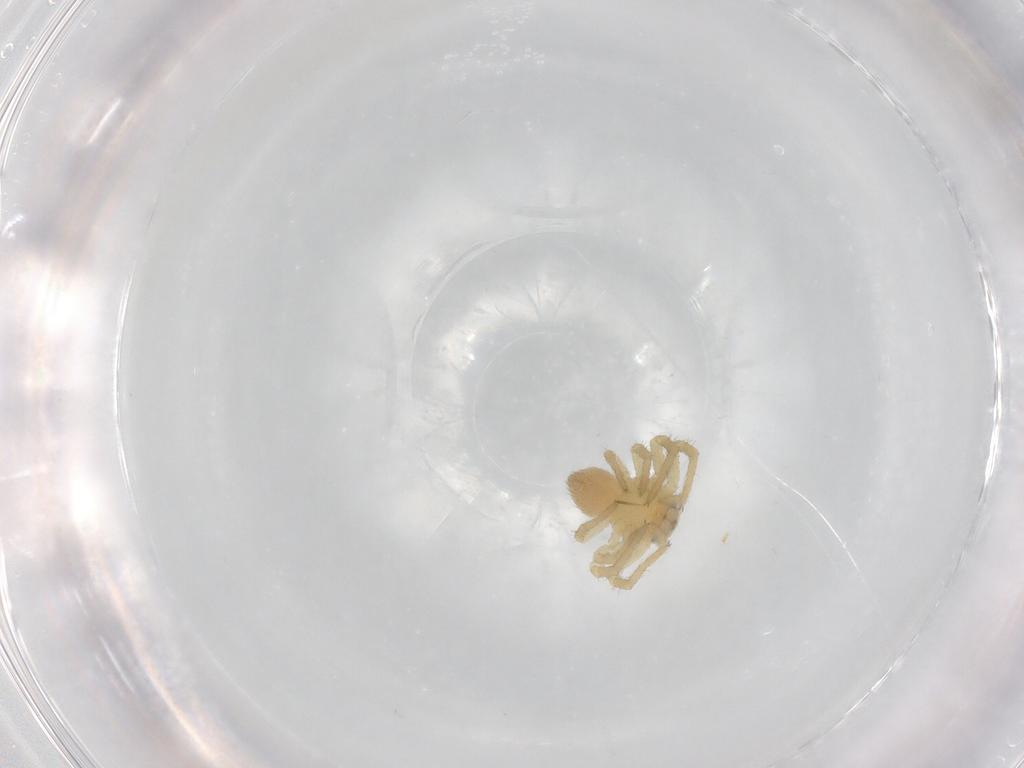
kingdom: Animalia
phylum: Arthropoda
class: Arachnida
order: Araneae
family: Thomisidae
